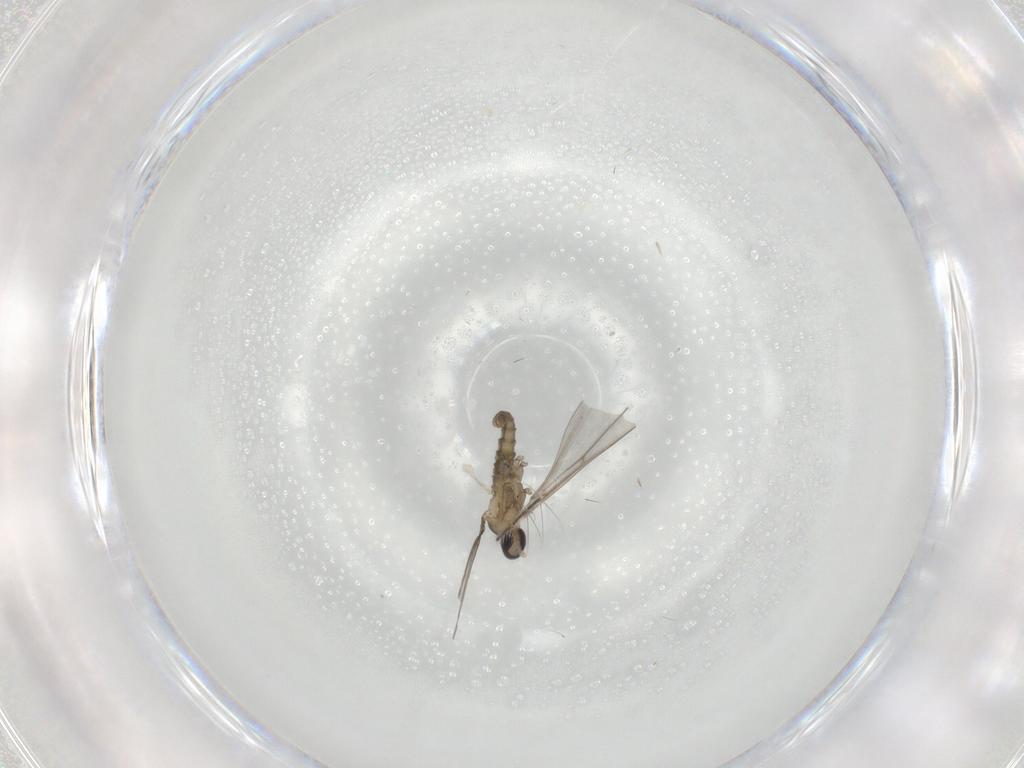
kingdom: Animalia
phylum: Arthropoda
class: Insecta
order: Diptera
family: Cecidomyiidae
